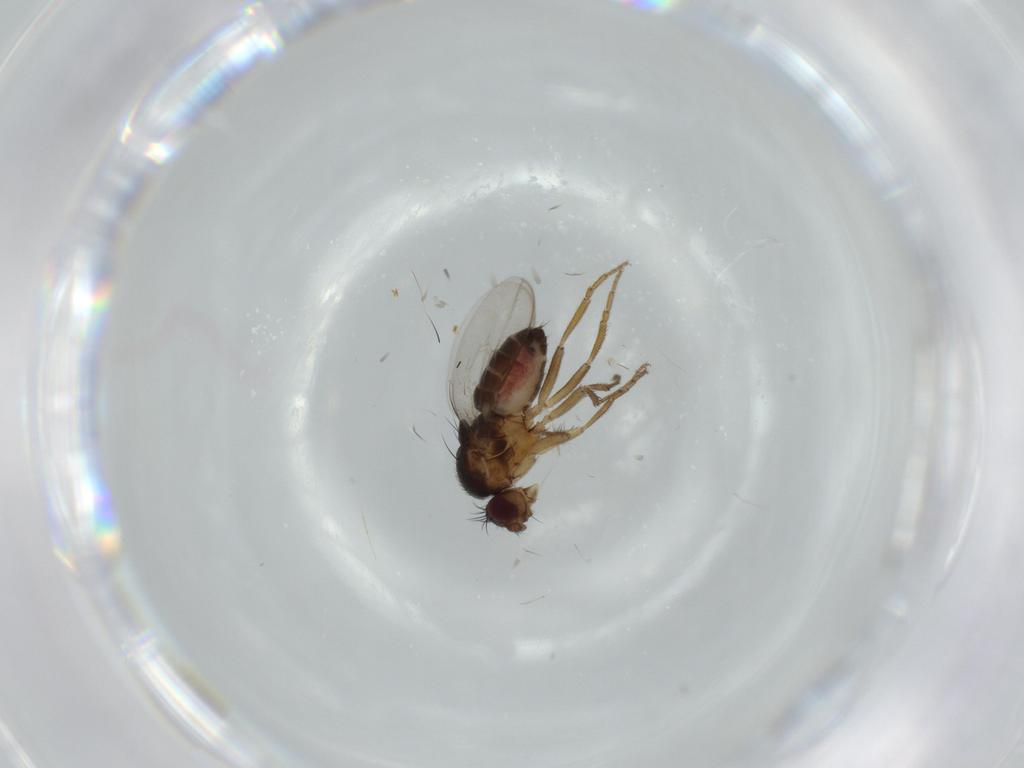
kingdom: Animalia
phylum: Arthropoda
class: Insecta
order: Diptera
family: Sphaeroceridae
